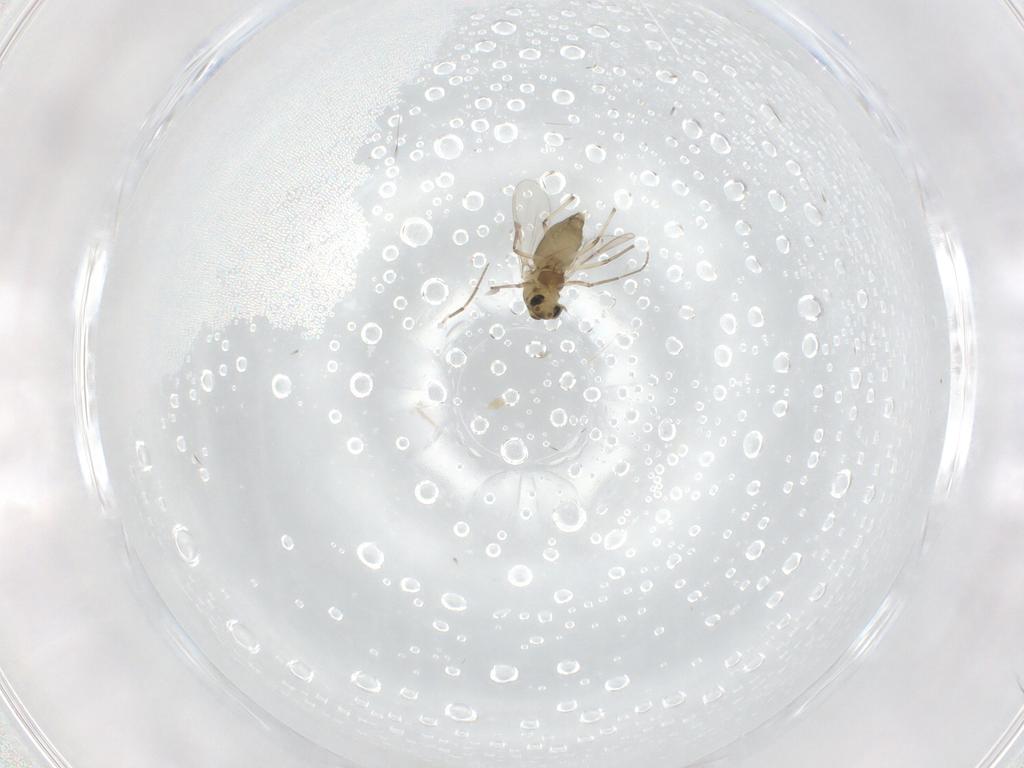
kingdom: Animalia
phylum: Arthropoda
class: Insecta
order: Diptera
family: Chironomidae
